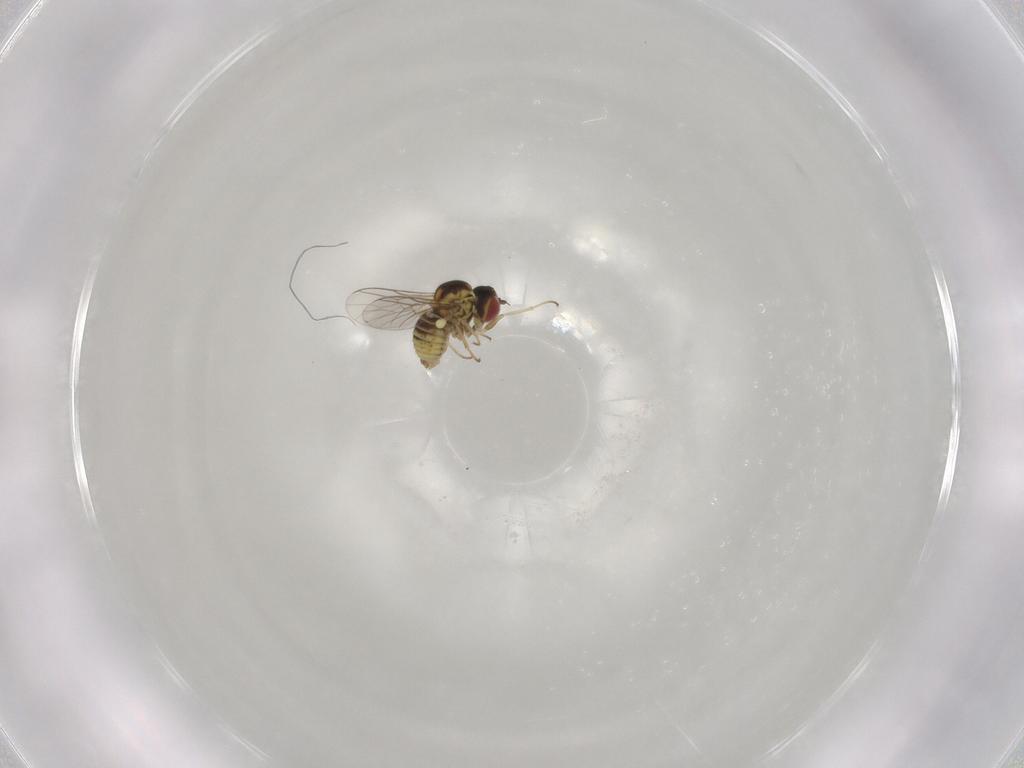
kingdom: Animalia
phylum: Arthropoda
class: Insecta
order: Diptera
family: Mythicomyiidae
